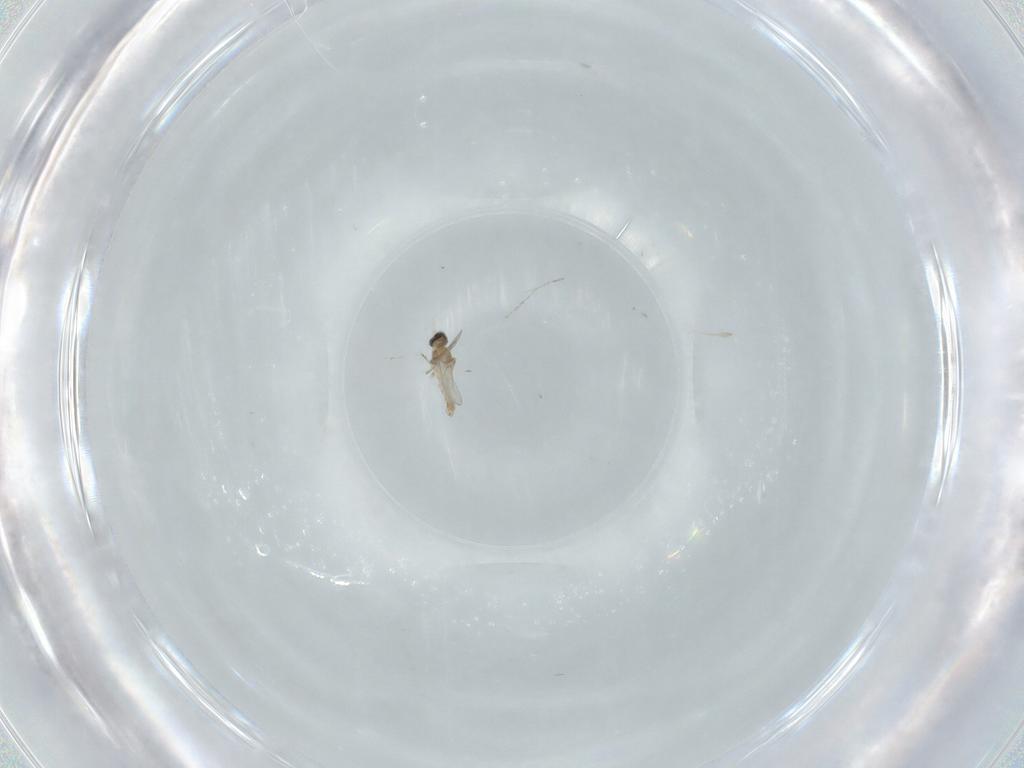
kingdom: Animalia
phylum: Arthropoda
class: Insecta
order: Diptera
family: Cecidomyiidae
